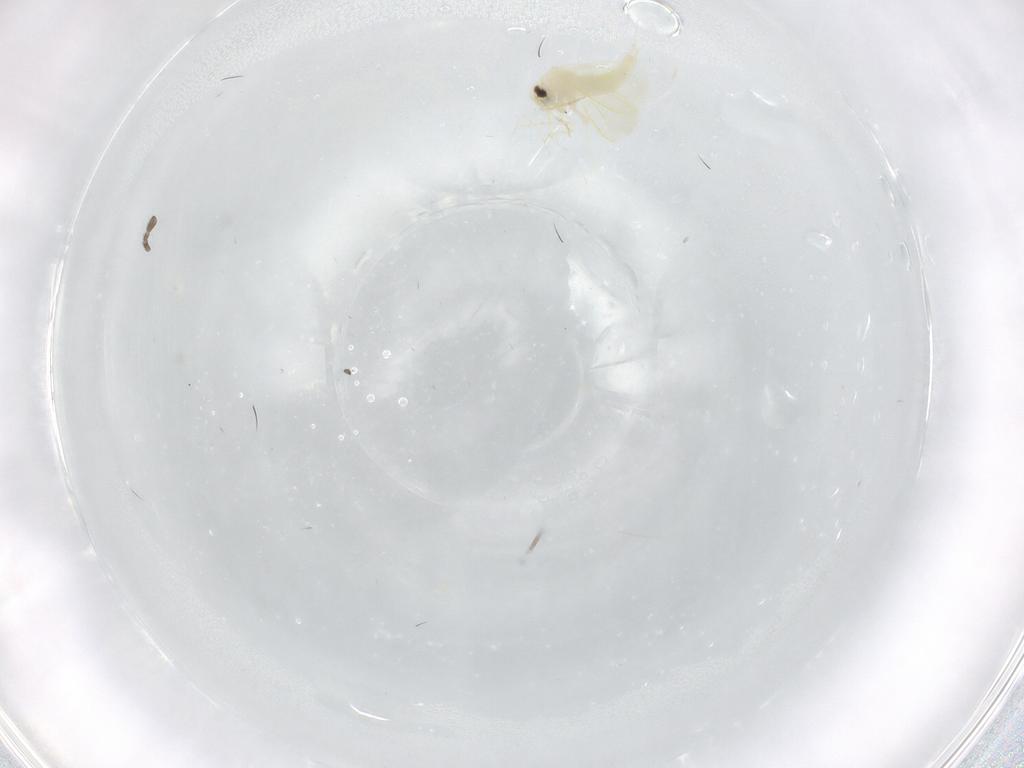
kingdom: Animalia
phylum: Arthropoda
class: Insecta
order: Hemiptera
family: Aleyrodidae
